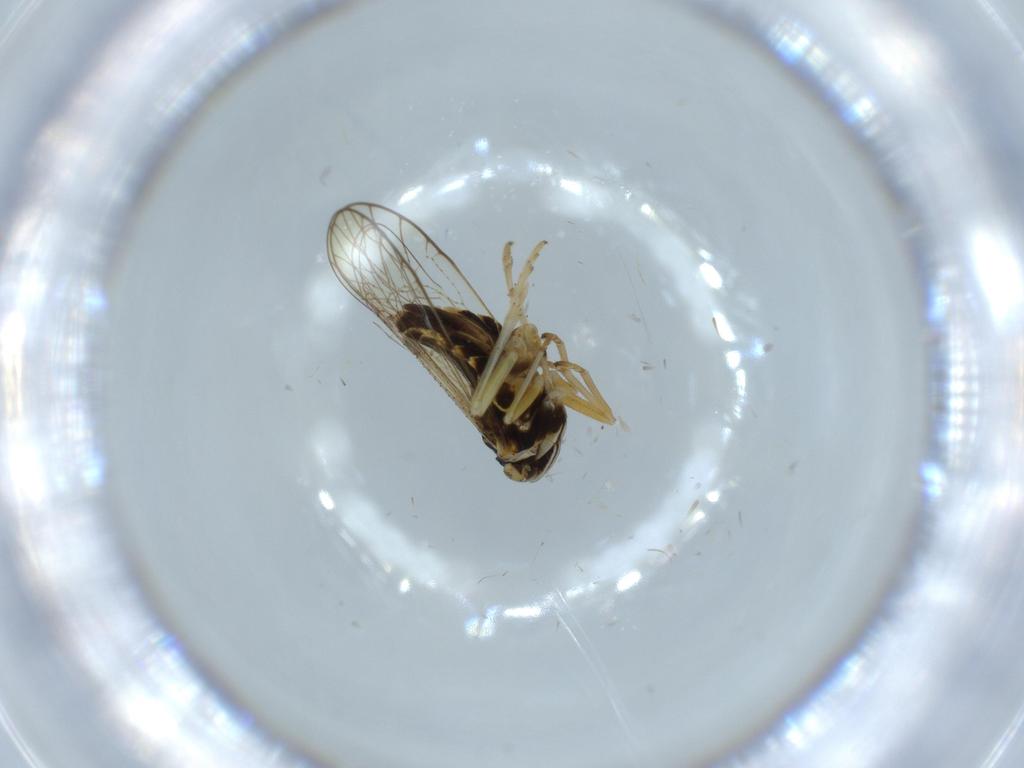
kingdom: Animalia
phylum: Arthropoda
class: Insecta
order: Diptera
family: Psychodidae
